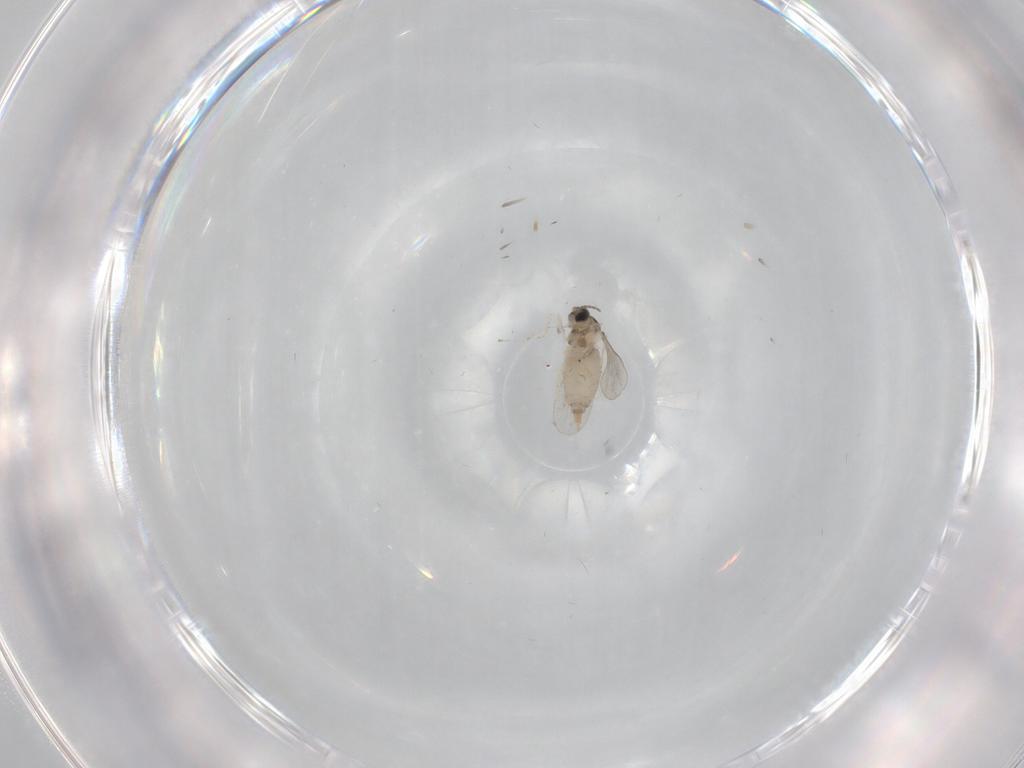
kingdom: Animalia
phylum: Arthropoda
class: Insecta
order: Diptera
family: Cecidomyiidae
